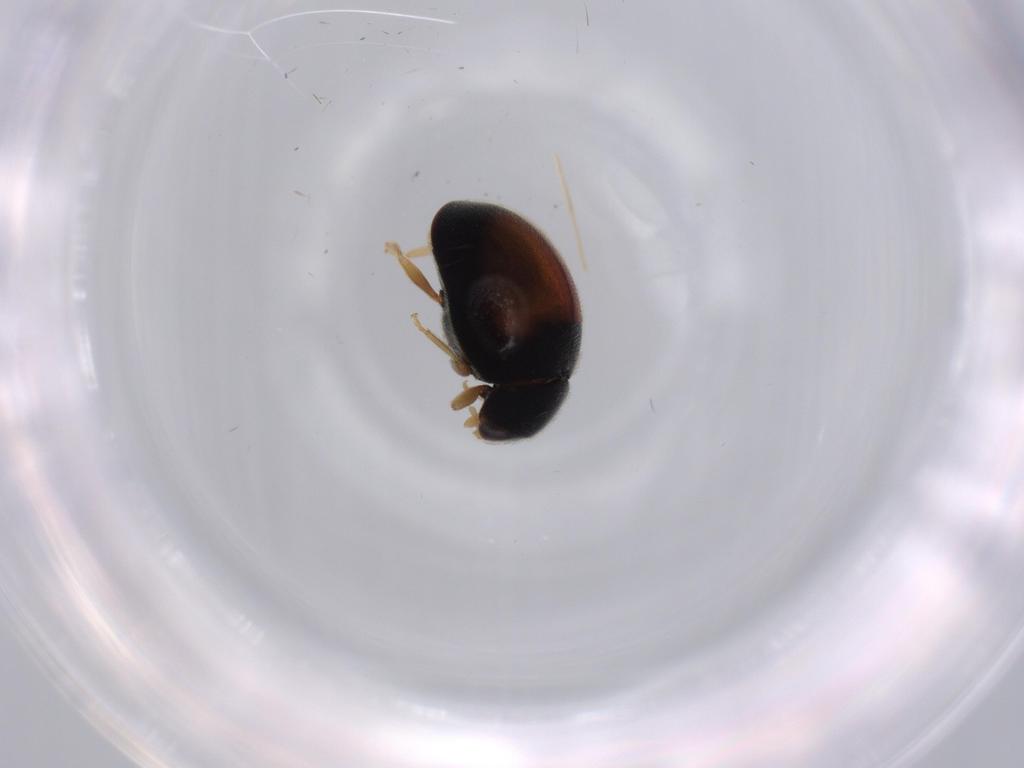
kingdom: Animalia
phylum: Arthropoda
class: Insecta
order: Coleoptera
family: Coccinellidae
